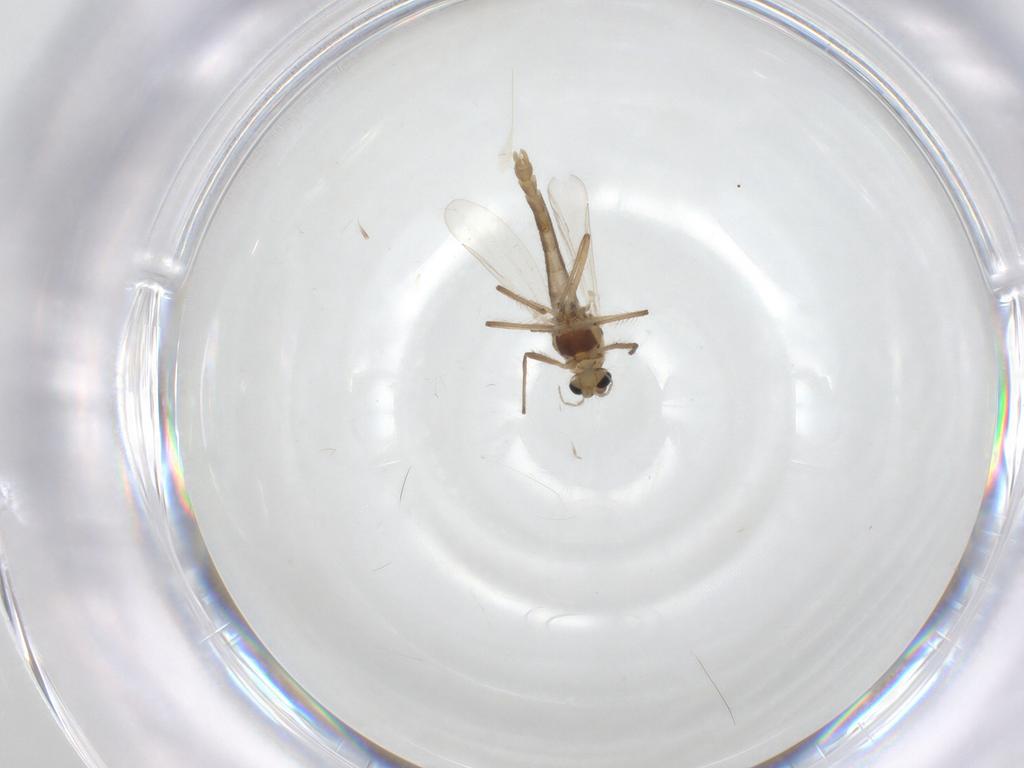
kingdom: Animalia
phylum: Arthropoda
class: Insecta
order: Diptera
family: Chironomidae
